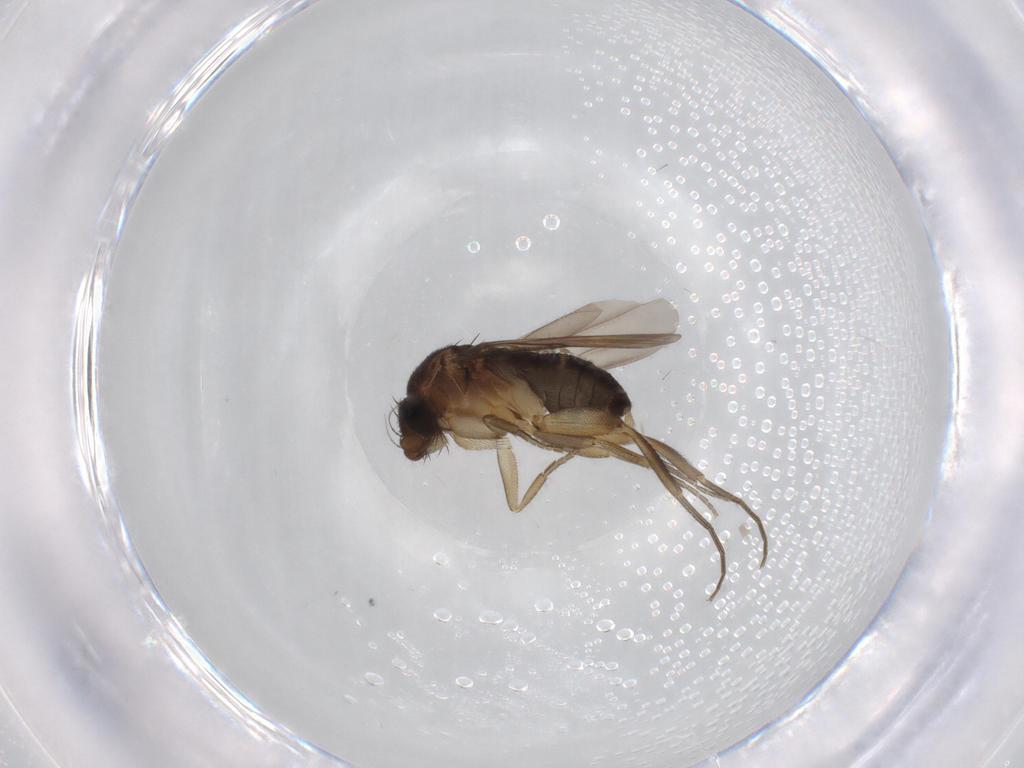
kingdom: Animalia
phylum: Arthropoda
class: Insecta
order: Diptera
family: Phoridae
